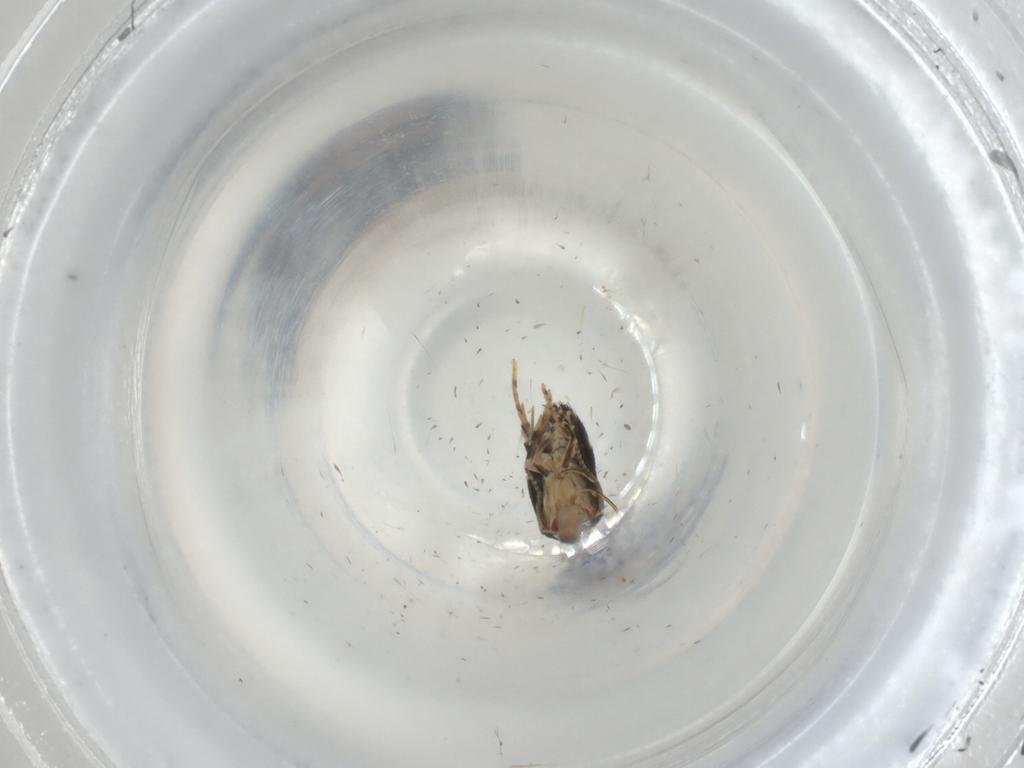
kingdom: Animalia
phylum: Arthropoda
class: Insecta
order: Lepidoptera
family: Cosmopterigidae
